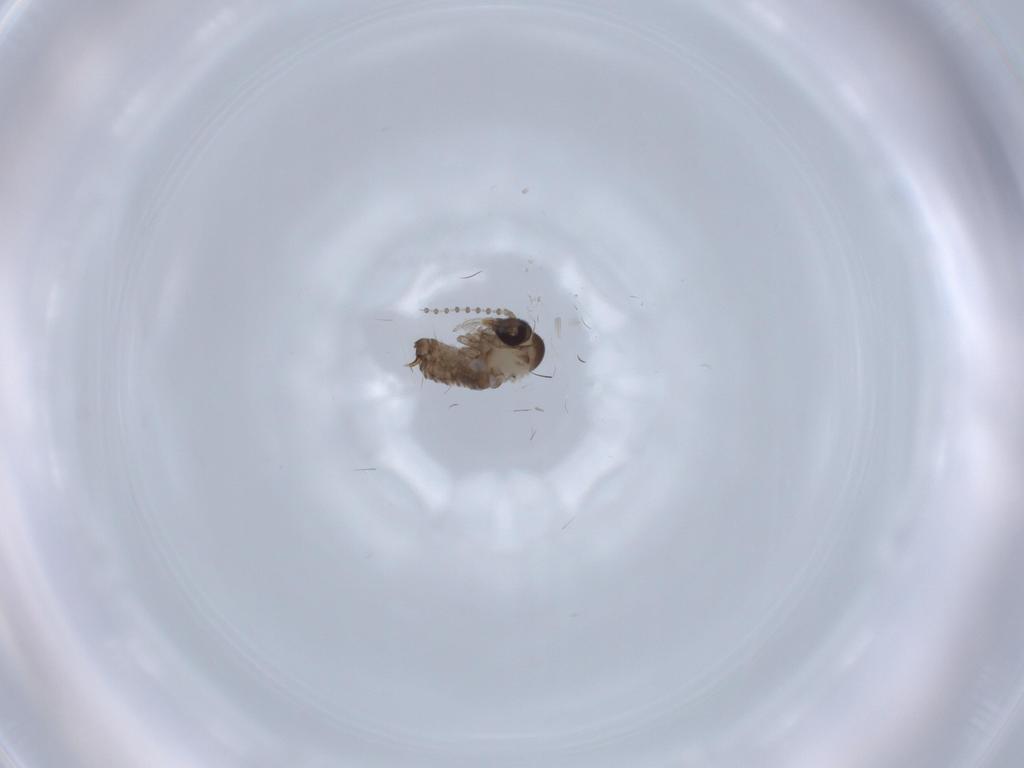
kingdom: Animalia
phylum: Arthropoda
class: Insecta
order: Diptera
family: Psychodidae
